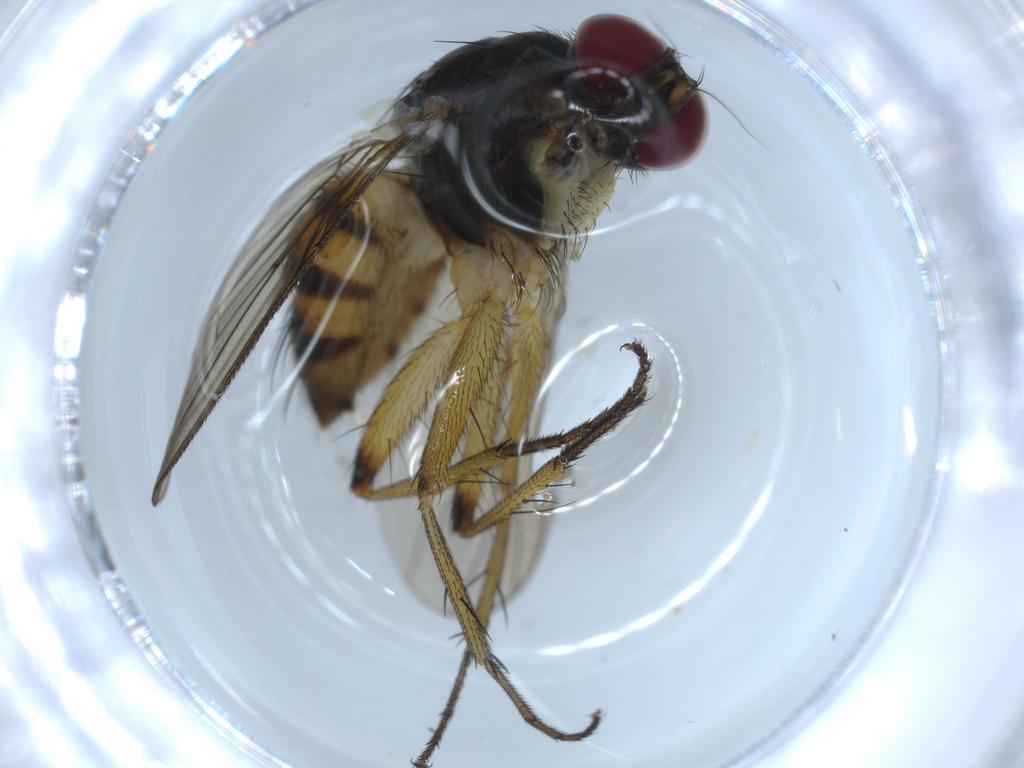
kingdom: Animalia
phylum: Arthropoda
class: Insecta
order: Diptera
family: Muscidae
